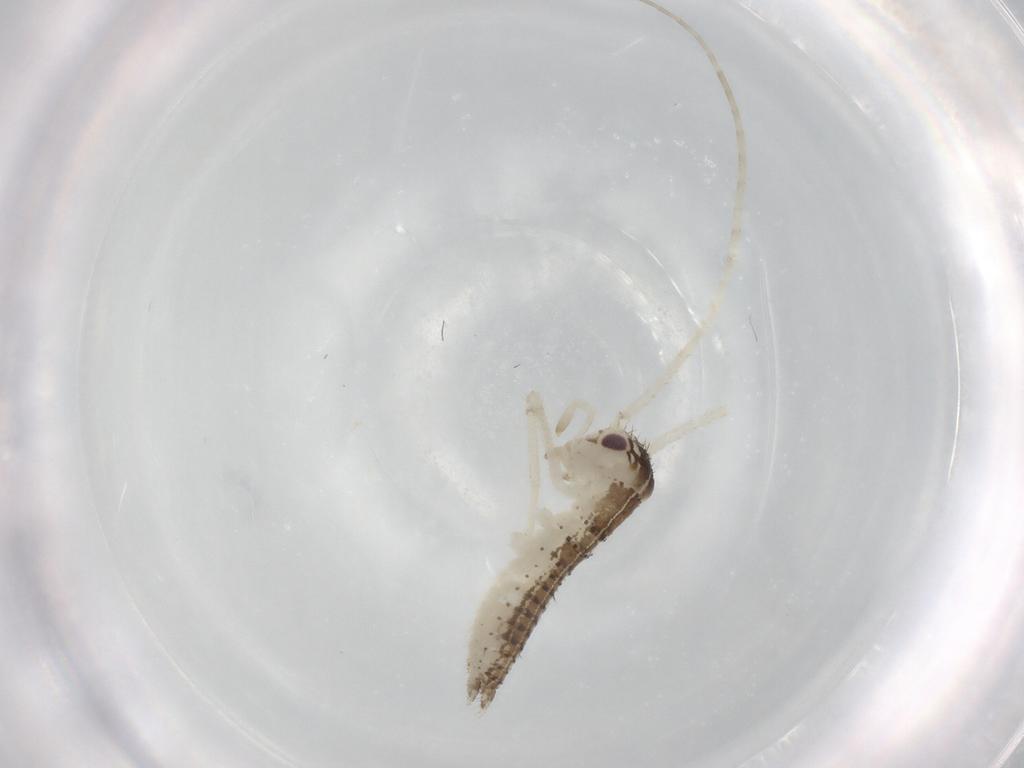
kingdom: Animalia
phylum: Arthropoda
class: Insecta
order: Orthoptera
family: Oecanthidae
